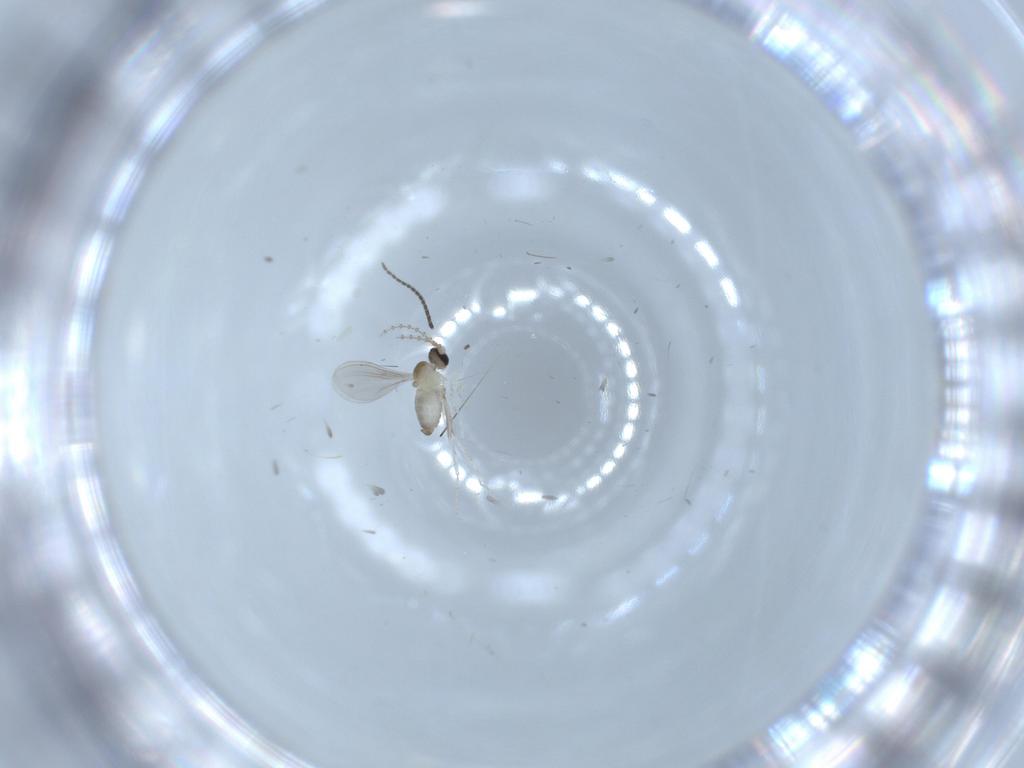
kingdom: Animalia
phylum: Arthropoda
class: Insecta
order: Diptera
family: Cecidomyiidae
